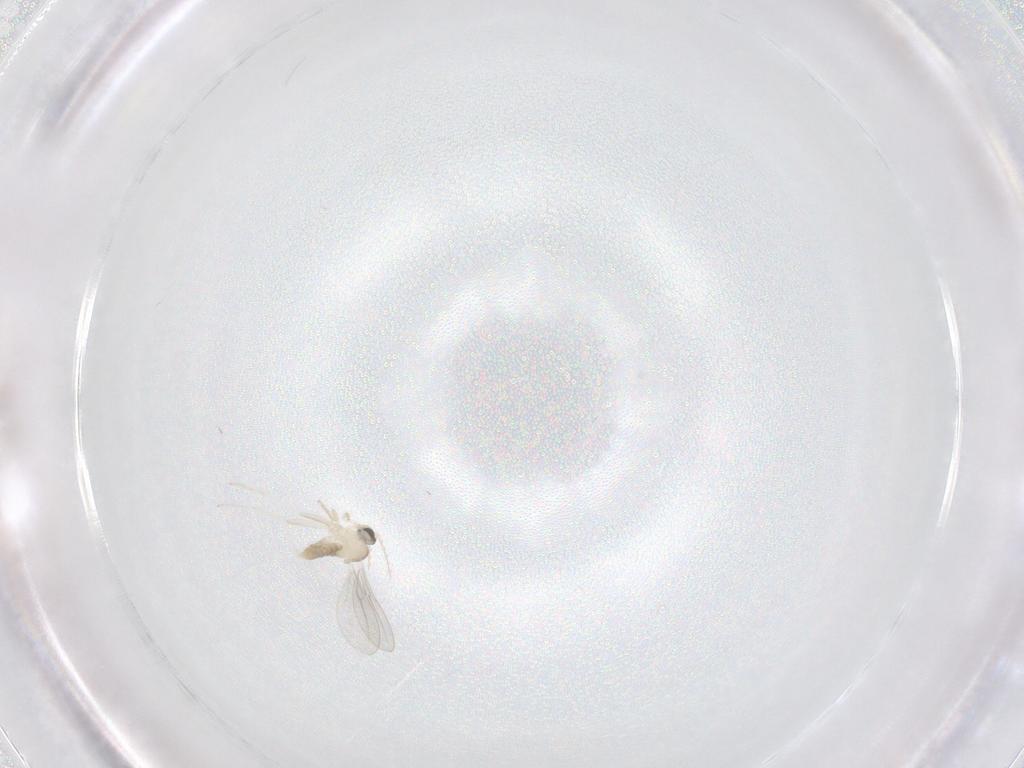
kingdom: Animalia
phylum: Arthropoda
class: Insecta
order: Diptera
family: Cecidomyiidae
